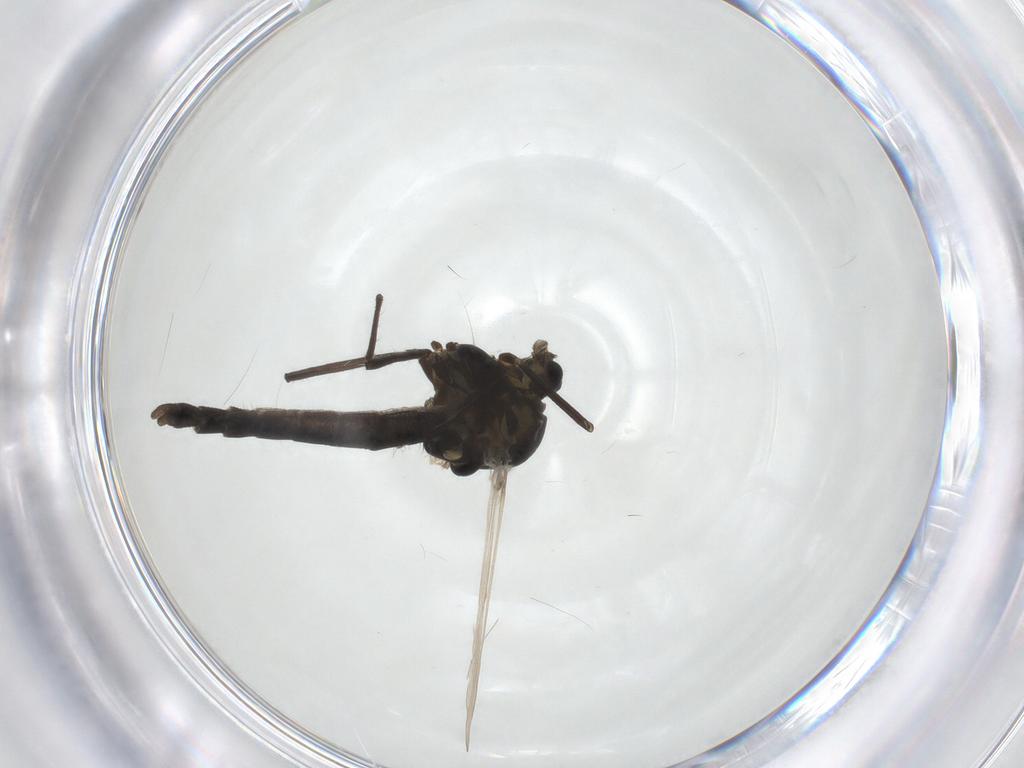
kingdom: Animalia
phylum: Arthropoda
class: Insecta
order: Diptera
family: Chironomidae
